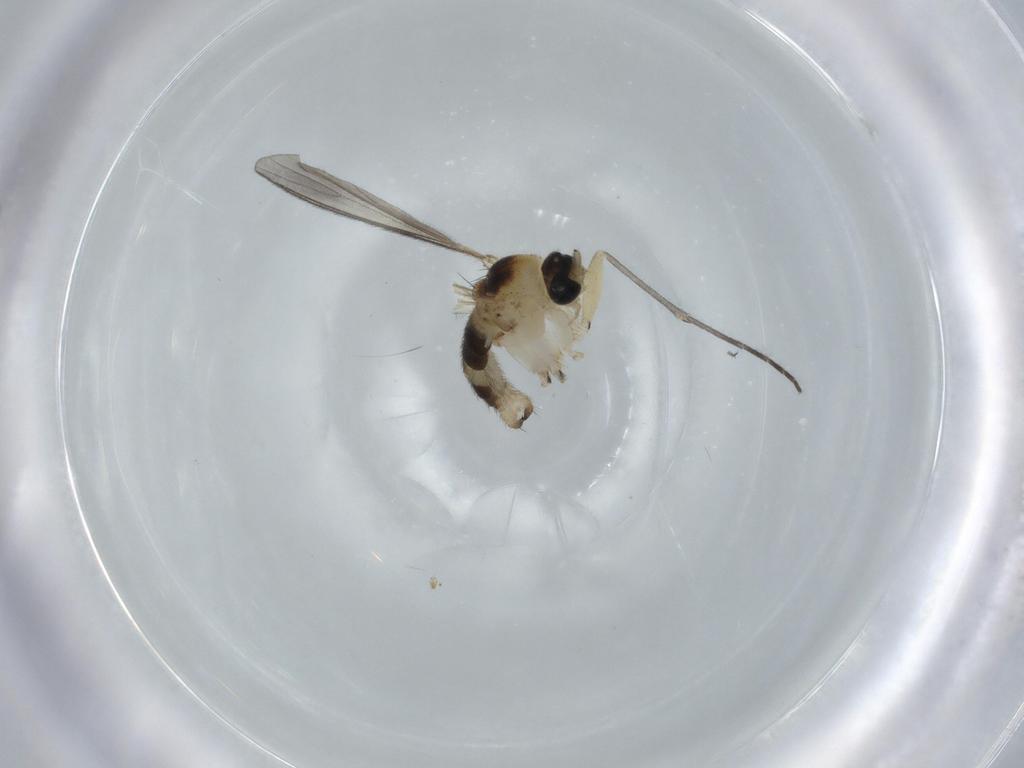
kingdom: Animalia
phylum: Arthropoda
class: Insecta
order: Diptera
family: Sciaridae
